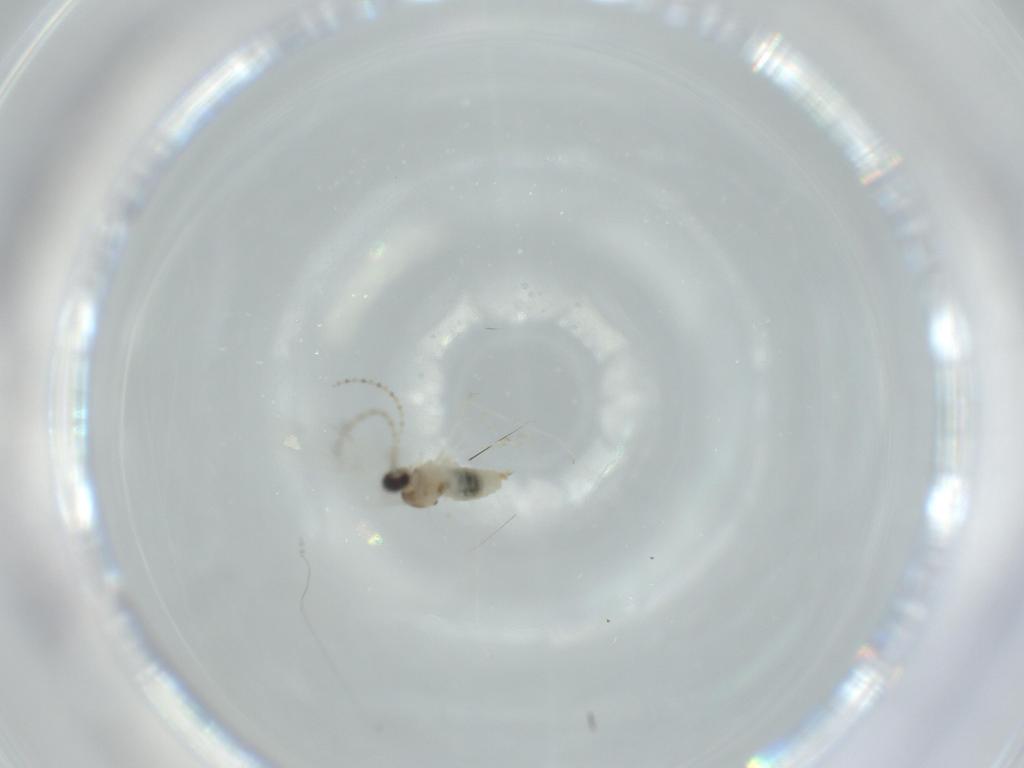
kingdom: Animalia
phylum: Arthropoda
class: Insecta
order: Diptera
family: Cecidomyiidae
